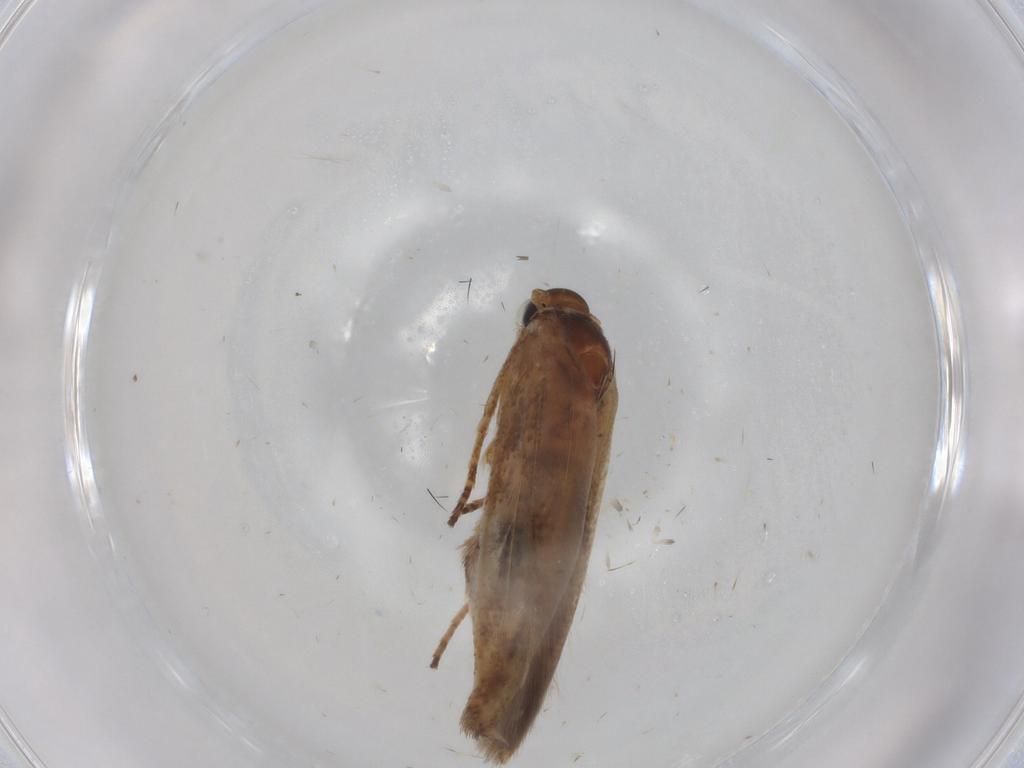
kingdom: Animalia
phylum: Arthropoda
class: Insecta
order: Lepidoptera
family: Scythrididae
